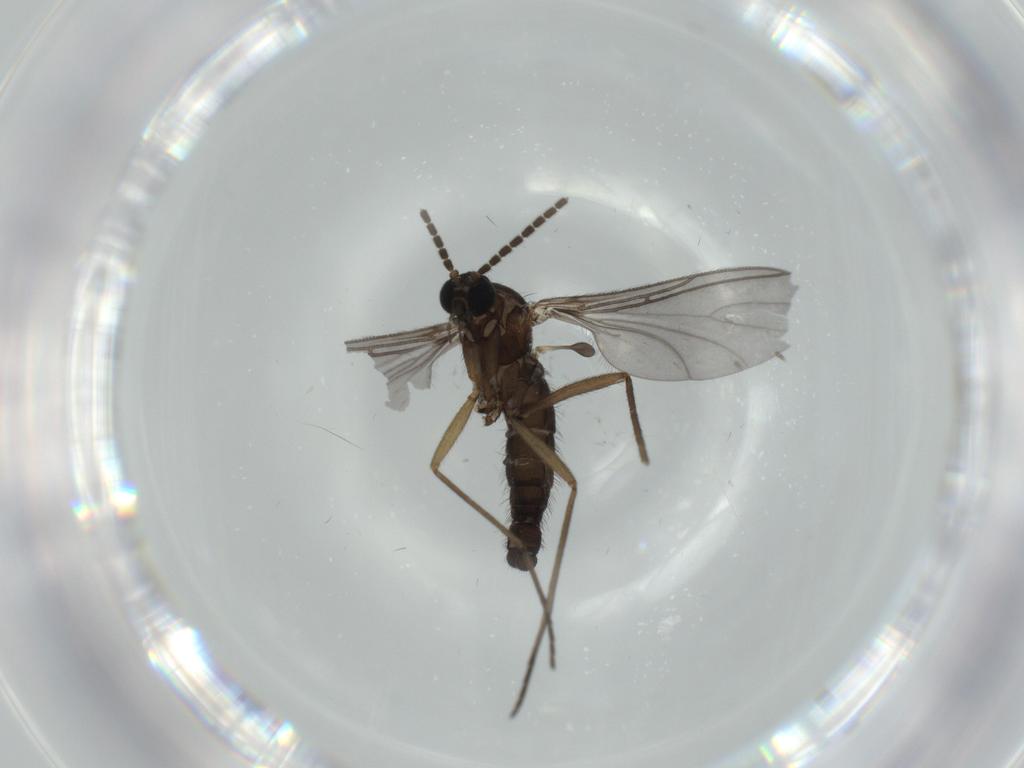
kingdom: Animalia
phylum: Arthropoda
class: Insecta
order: Diptera
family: Sciaridae
